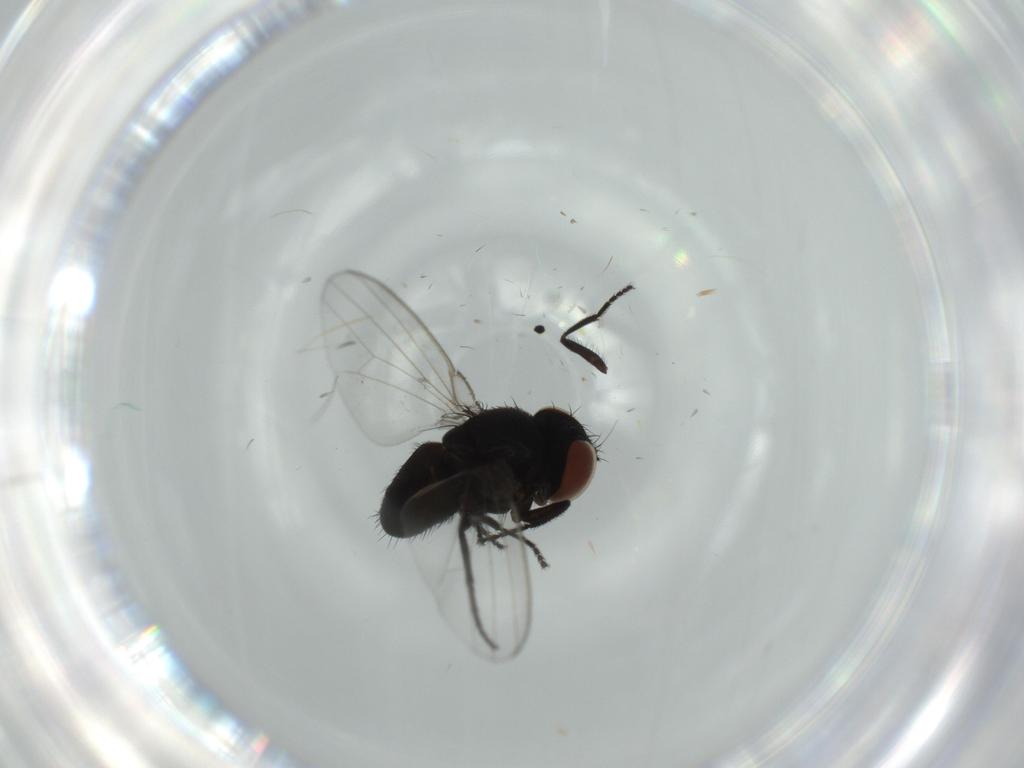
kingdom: Animalia
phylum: Arthropoda
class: Insecta
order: Diptera
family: Milichiidae
